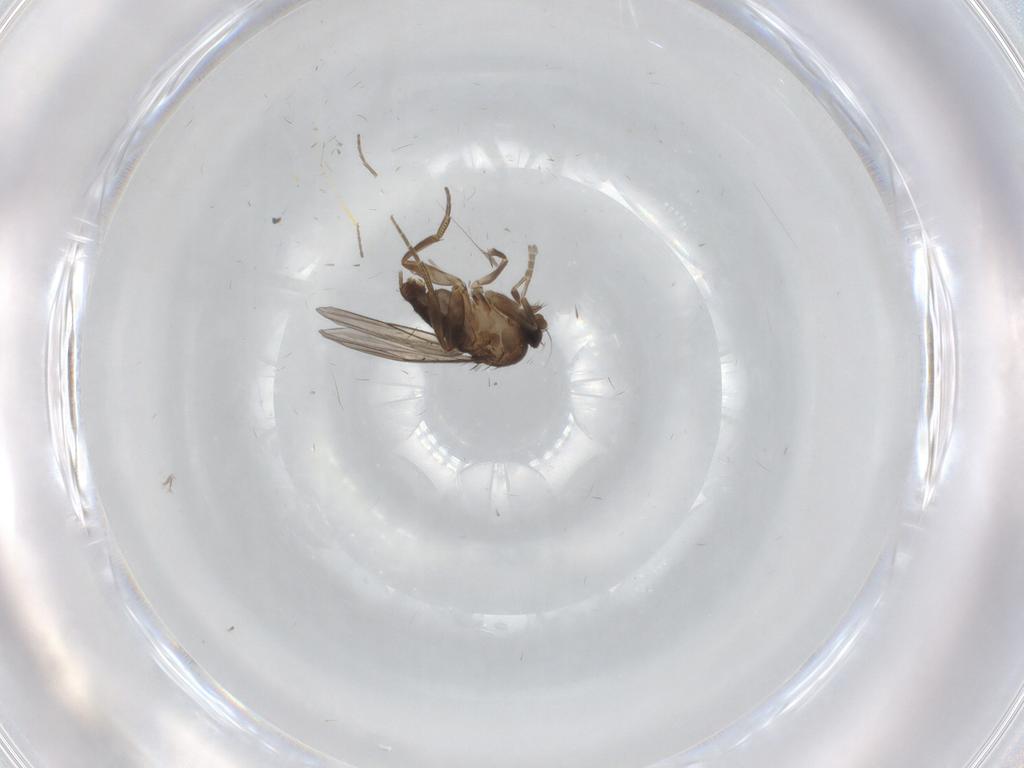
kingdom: Animalia
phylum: Arthropoda
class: Insecta
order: Diptera
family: Phoridae
